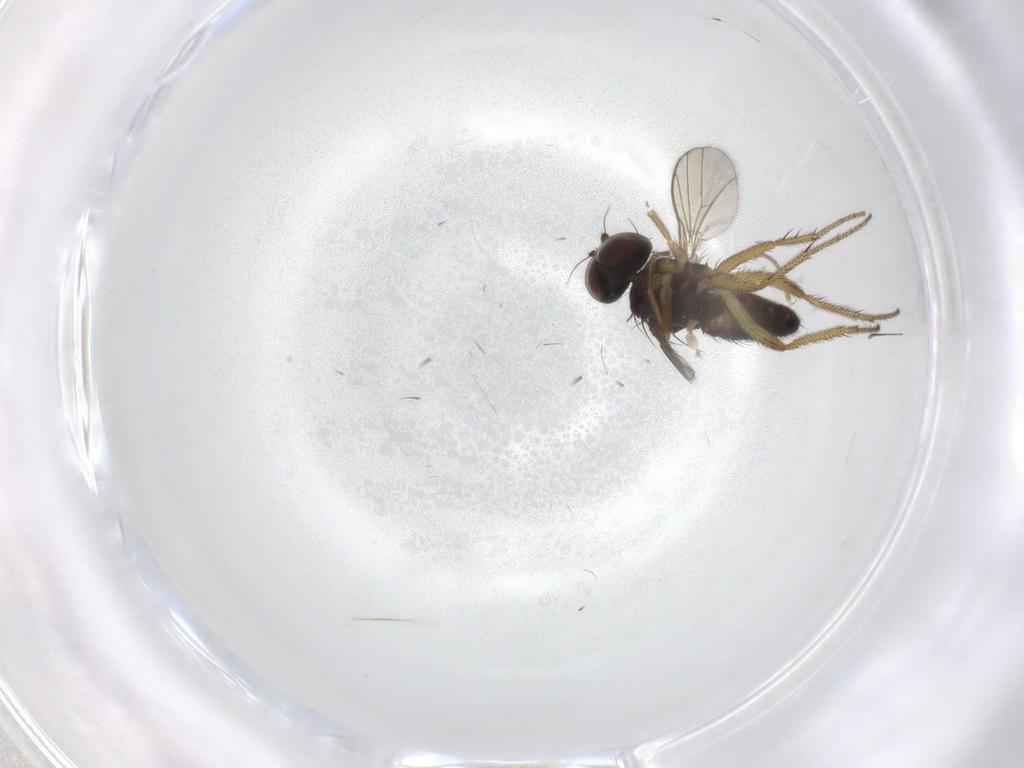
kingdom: Animalia
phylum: Arthropoda
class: Insecta
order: Diptera
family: Chironomidae
